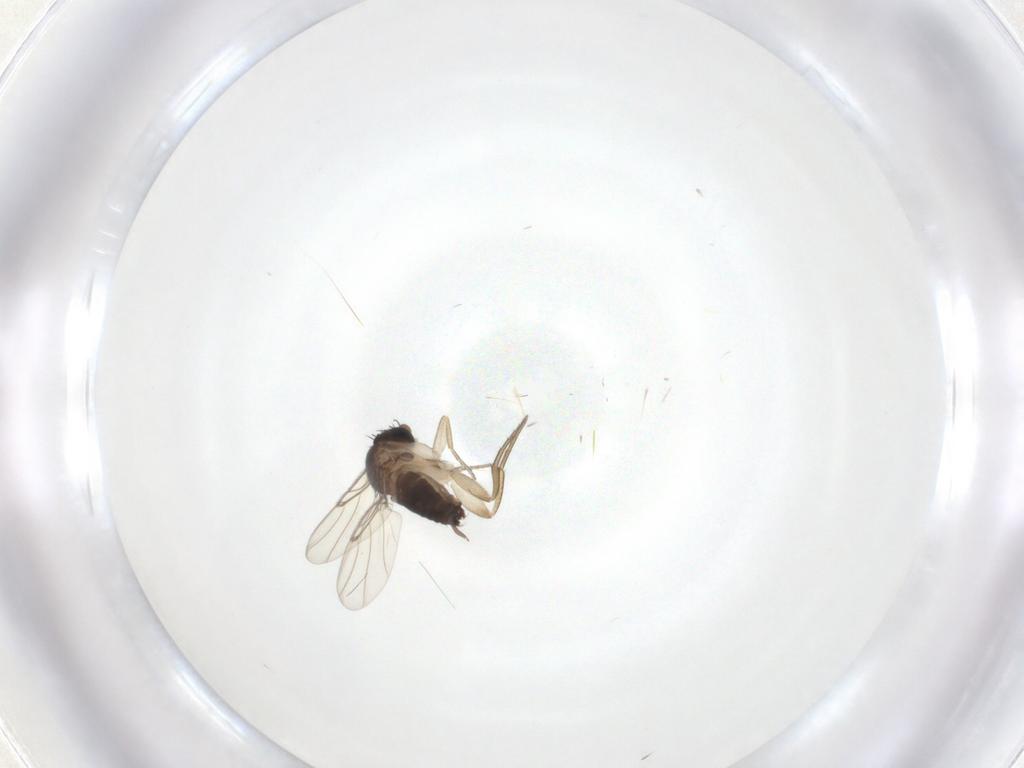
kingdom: Animalia
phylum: Arthropoda
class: Insecta
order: Diptera
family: Phoridae
